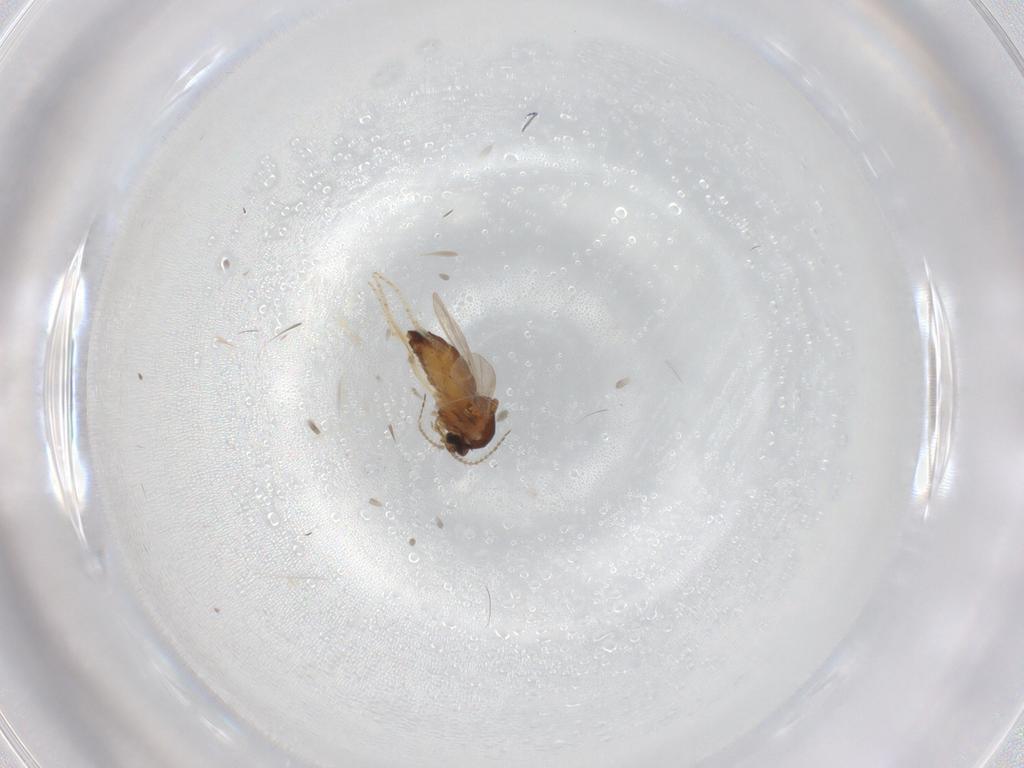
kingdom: Animalia
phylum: Arthropoda
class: Insecta
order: Diptera
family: Ceratopogonidae
